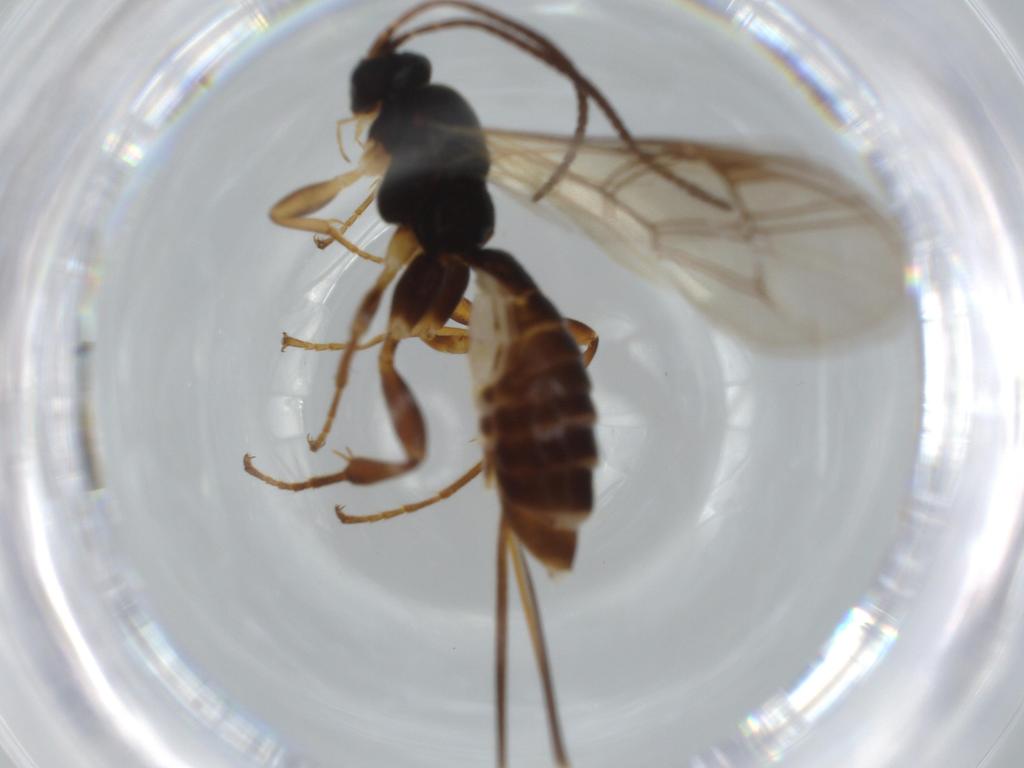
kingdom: Animalia
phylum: Arthropoda
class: Insecta
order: Hymenoptera
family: Ichneumonidae
